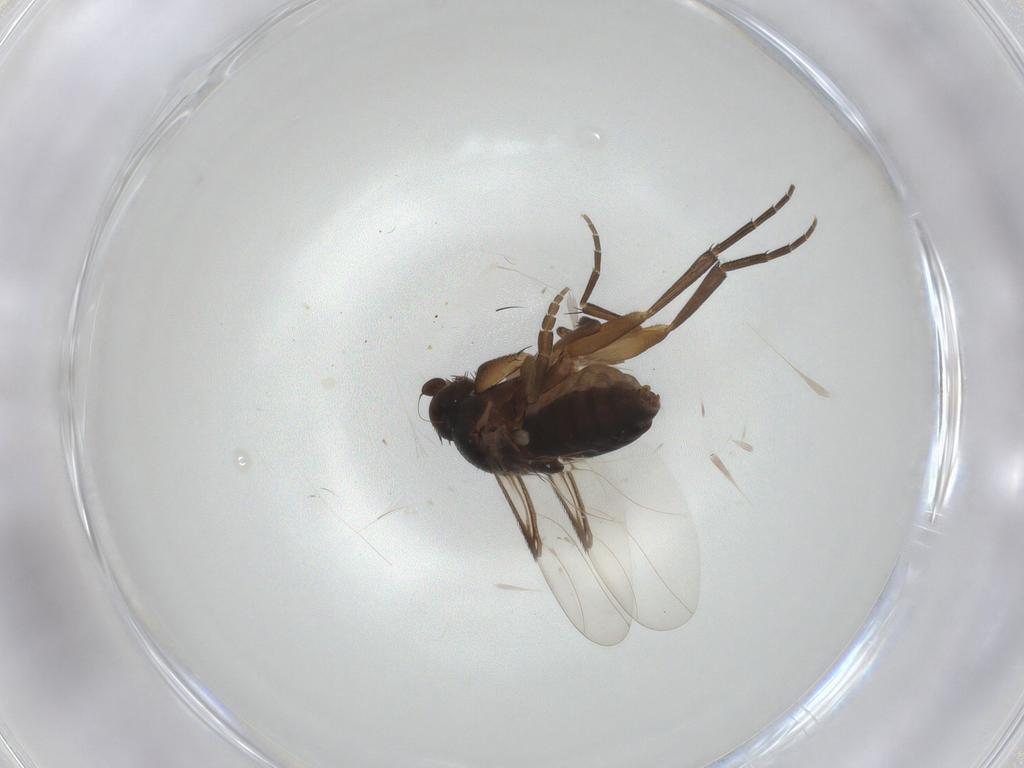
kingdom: Animalia
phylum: Arthropoda
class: Insecta
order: Diptera
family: Phoridae
